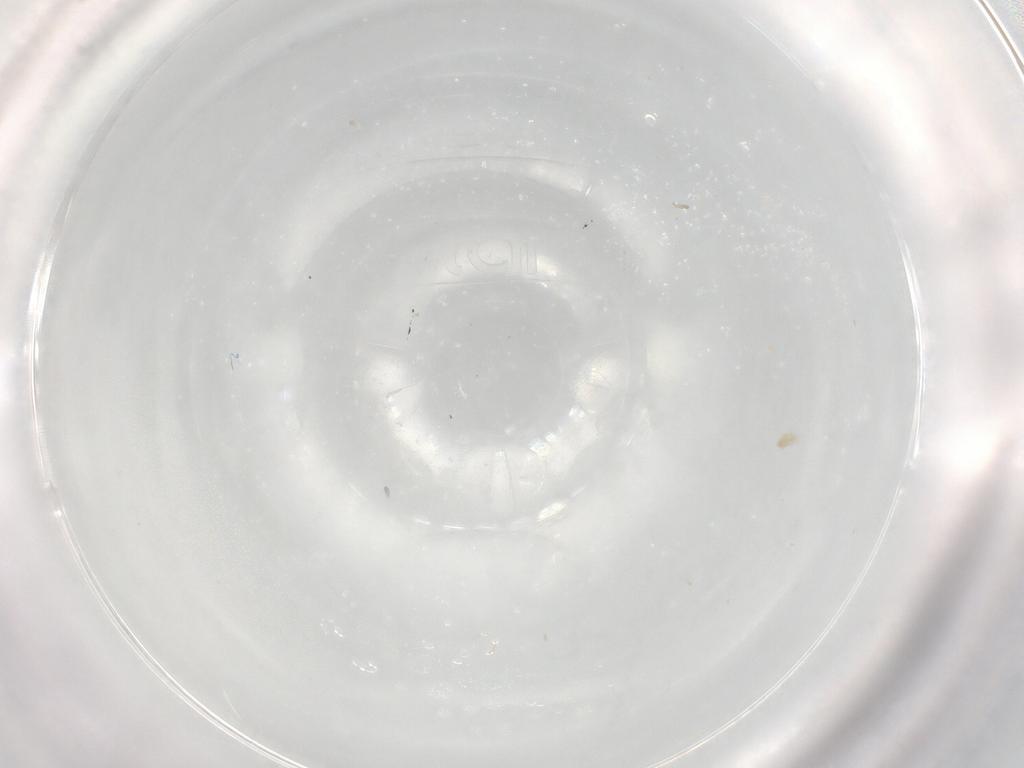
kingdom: Animalia
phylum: Arthropoda
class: Arachnida
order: Trombidiformes
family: Eupodidae
